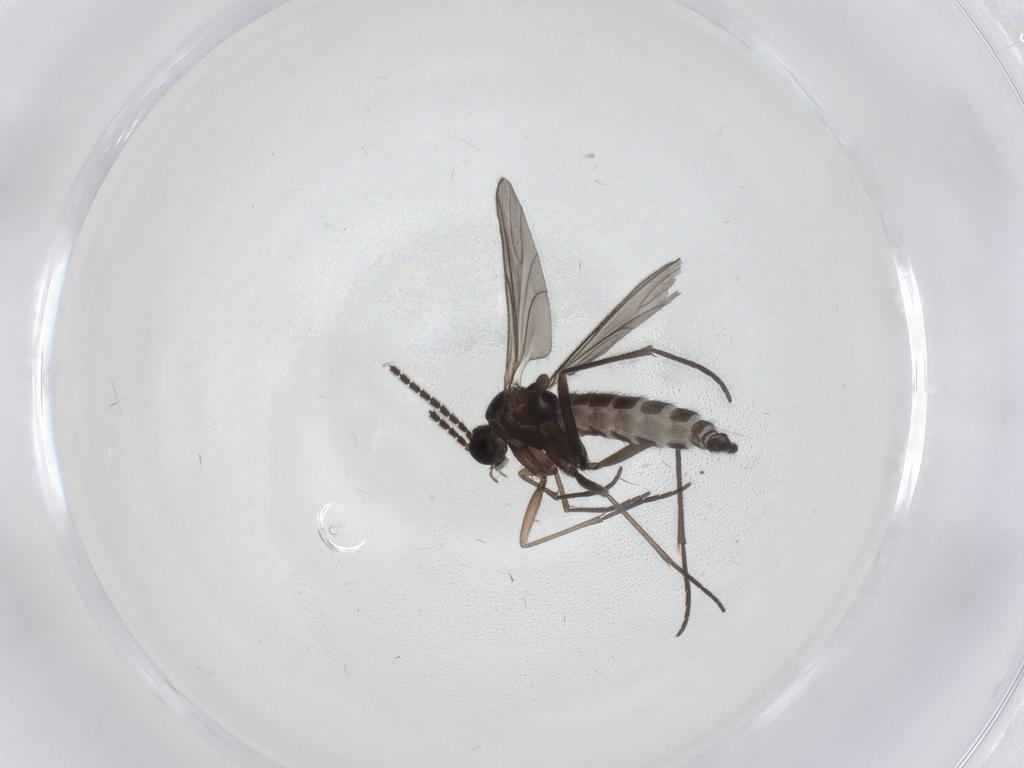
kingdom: Animalia
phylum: Arthropoda
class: Insecta
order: Diptera
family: Sciaridae
